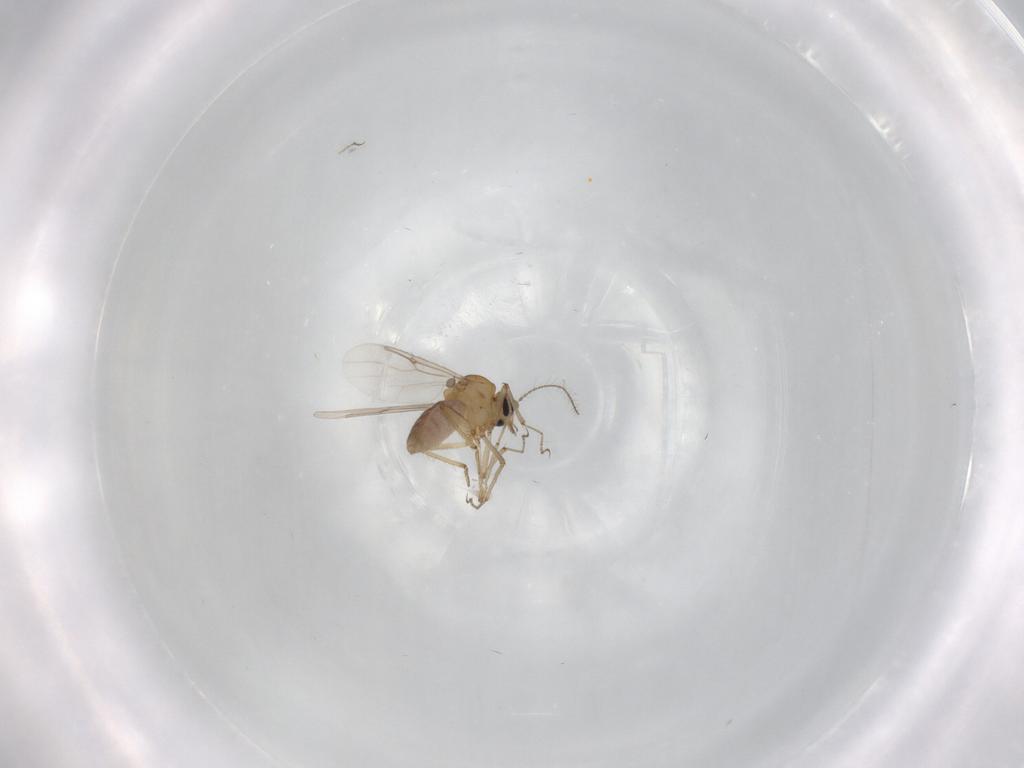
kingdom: Animalia
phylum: Arthropoda
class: Insecta
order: Diptera
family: Ceratopogonidae
